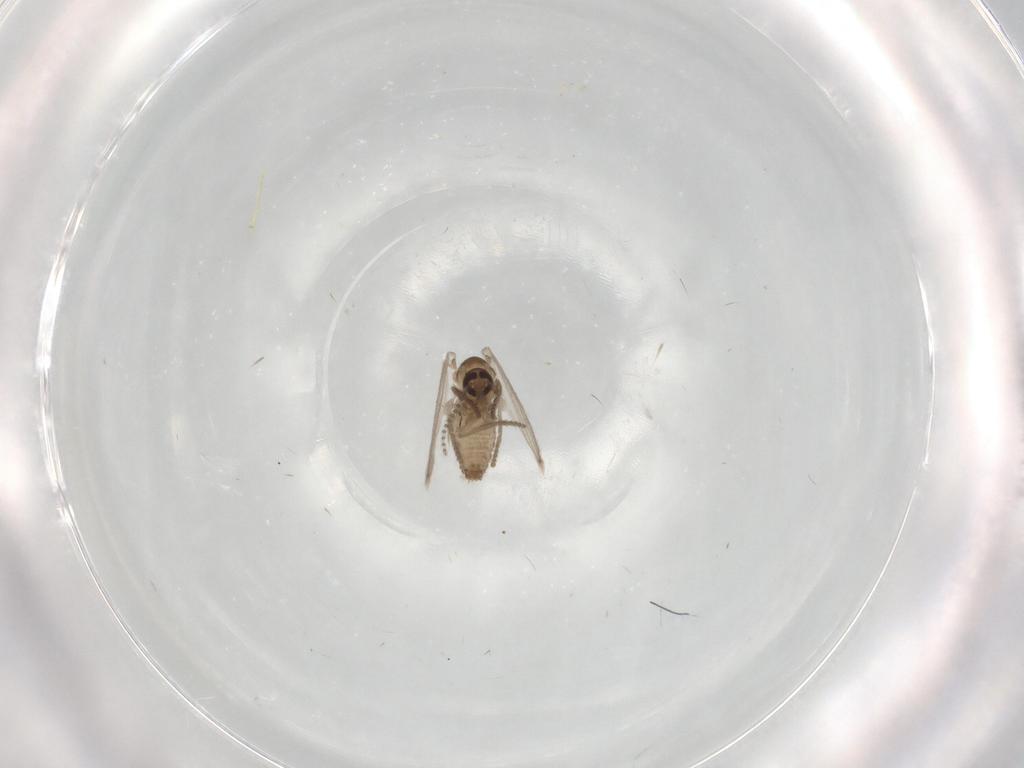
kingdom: Animalia
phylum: Arthropoda
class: Insecta
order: Diptera
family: Psychodidae
